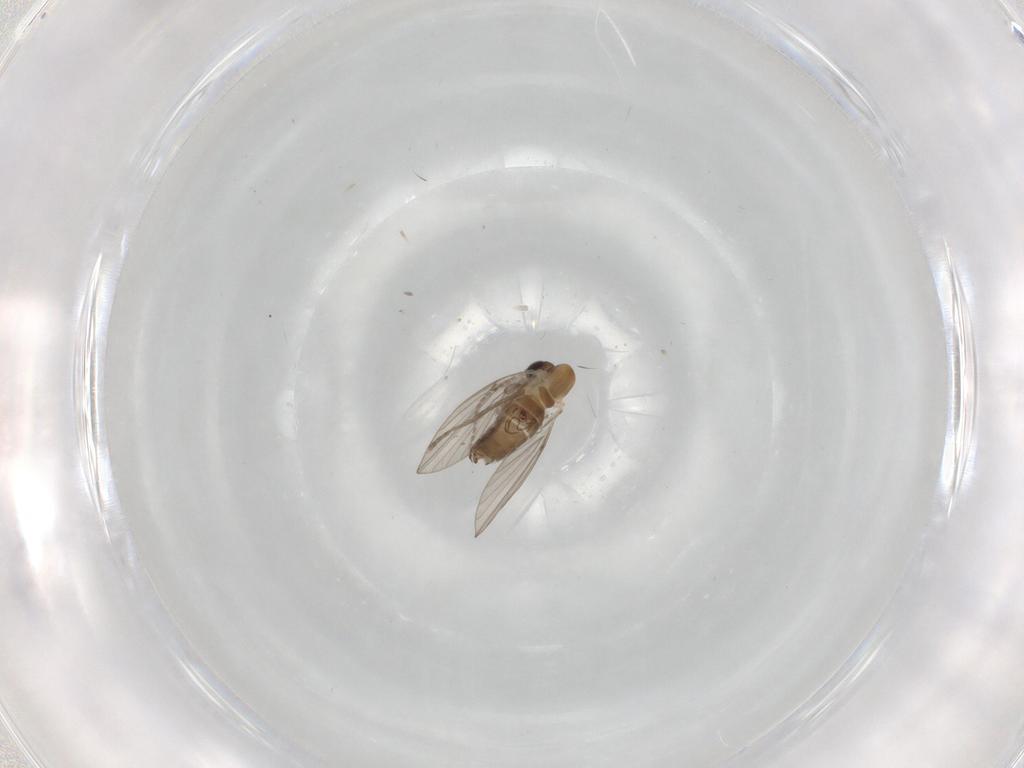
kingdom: Animalia
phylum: Arthropoda
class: Insecta
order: Diptera
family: Psychodidae
